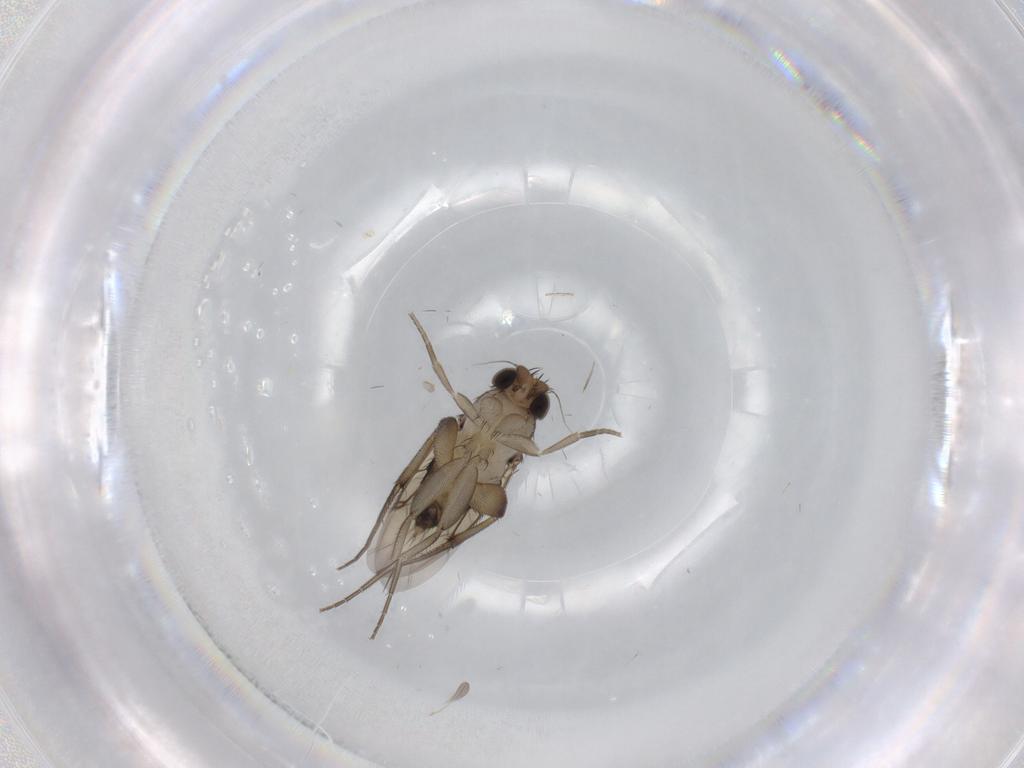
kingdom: Animalia
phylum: Arthropoda
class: Insecta
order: Diptera
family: Phoridae
